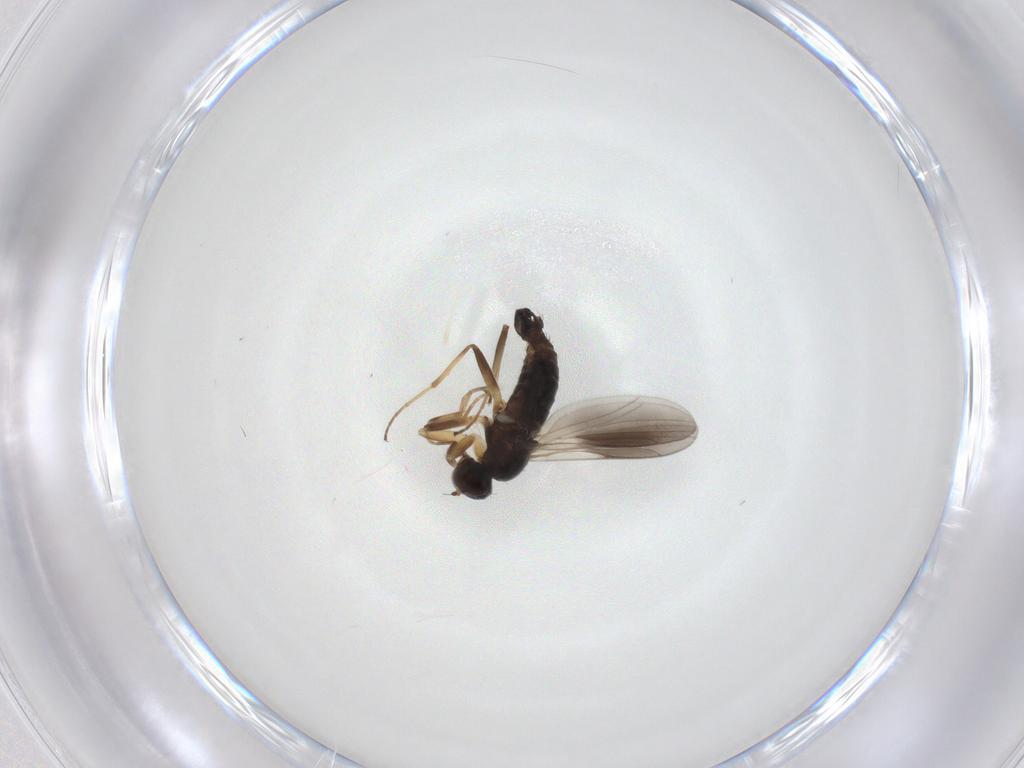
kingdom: Animalia
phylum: Arthropoda
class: Insecta
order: Diptera
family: Hybotidae
